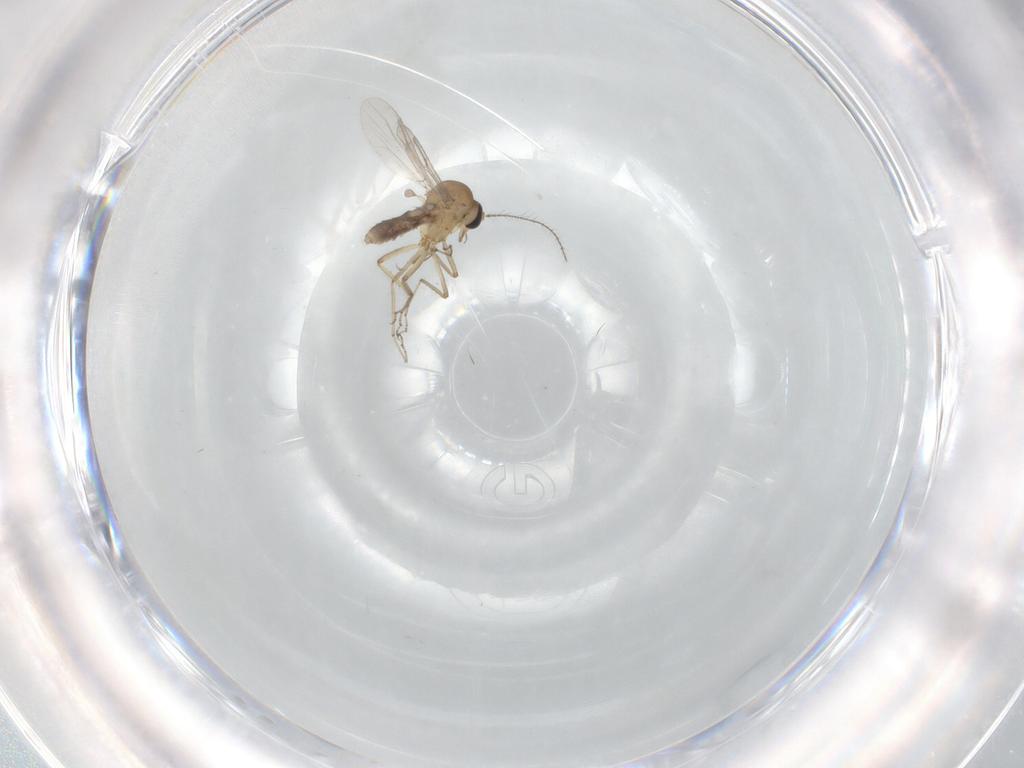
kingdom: Animalia
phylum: Arthropoda
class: Insecta
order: Diptera
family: Ceratopogonidae
